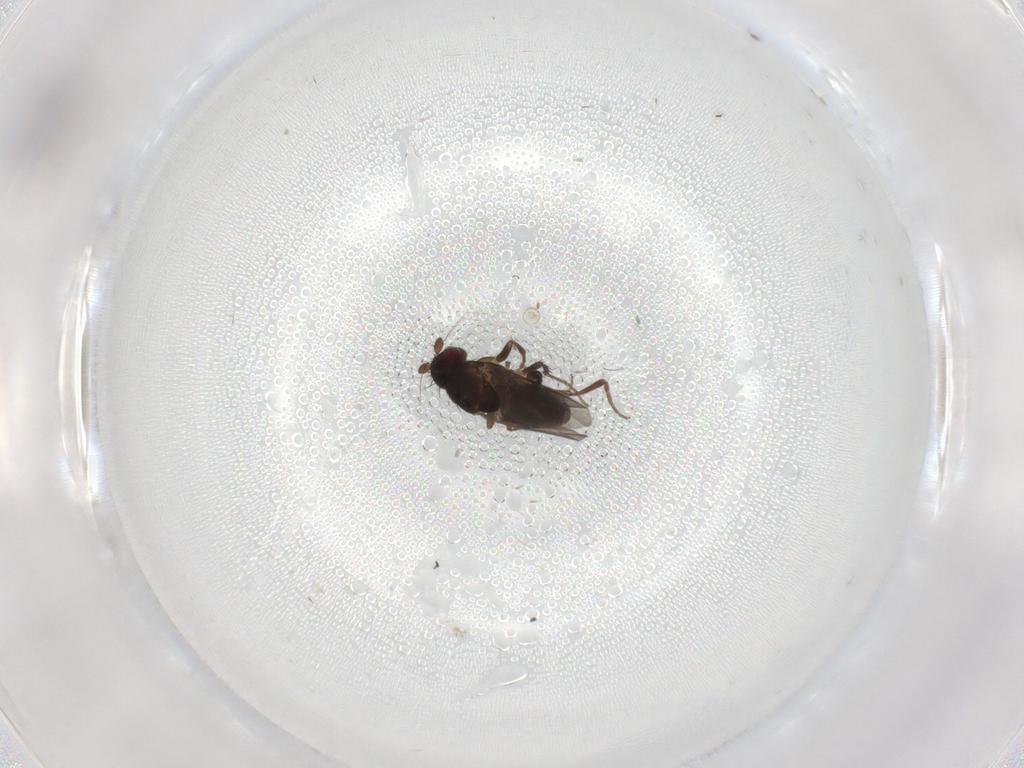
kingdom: Animalia
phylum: Arthropoda
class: Insecta
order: Diptera
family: Sphaeroceridae
